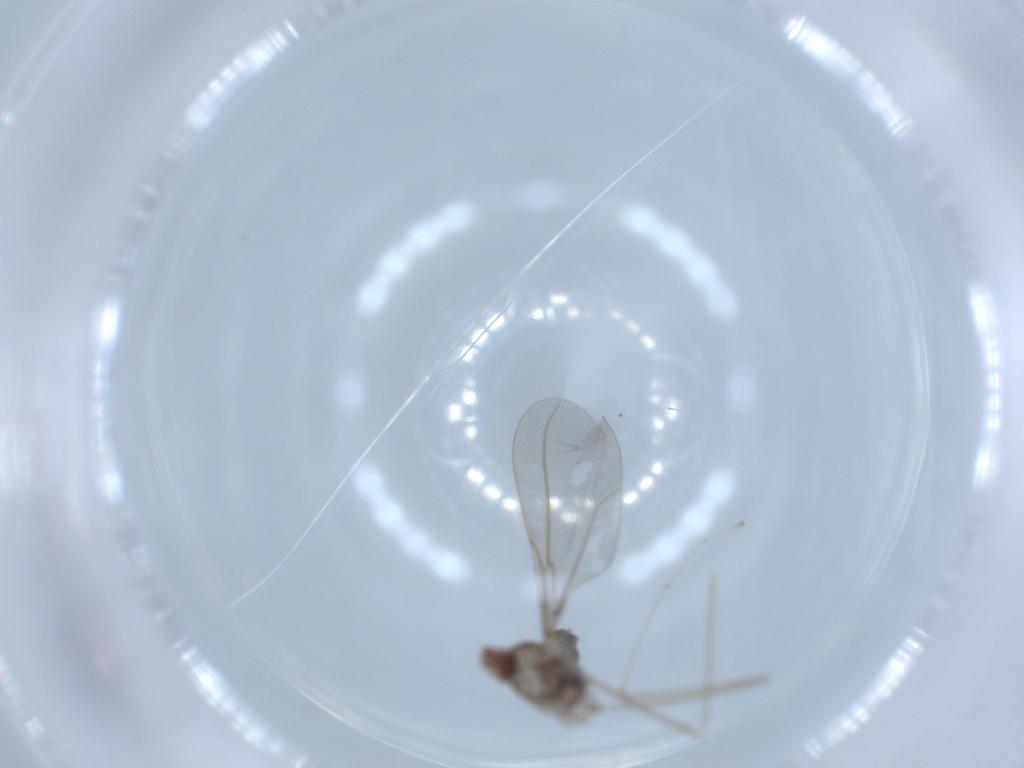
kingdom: Animalia
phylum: Arthropoda
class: Insecta
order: Diptera
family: Cecidomyiidae
